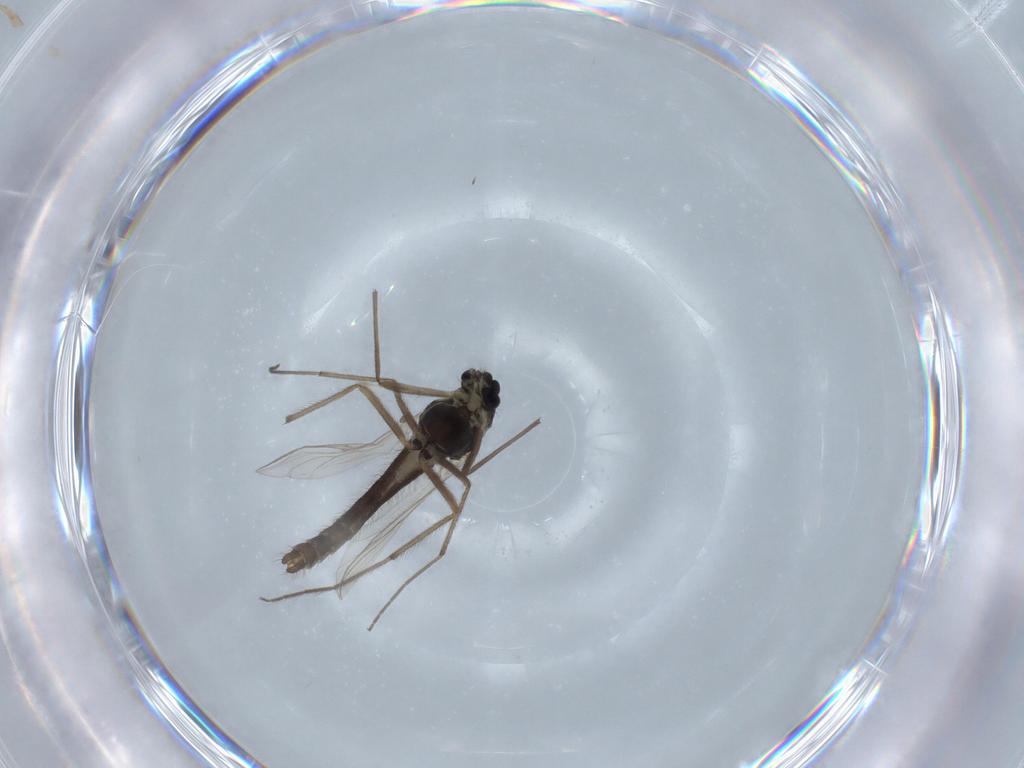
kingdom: Animalia
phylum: Arthropoda
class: Insecta
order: Diptera
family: Chironomidae
